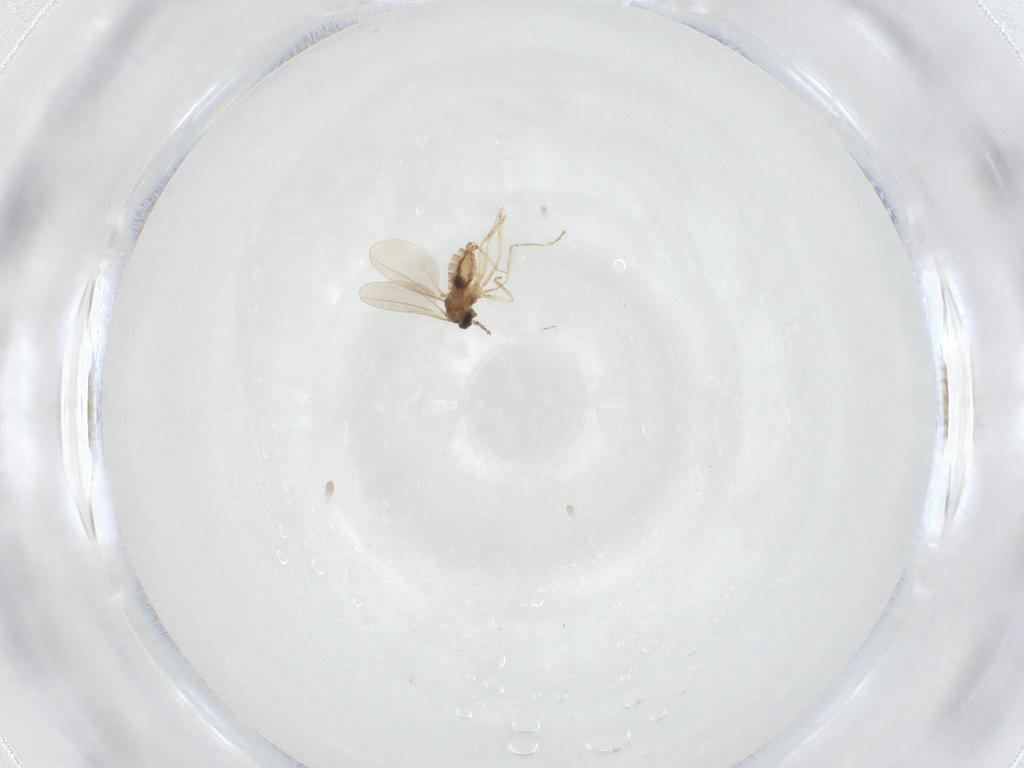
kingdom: Animalia
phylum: Arthropoda
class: Insecta
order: Diptera
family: Cecidomyiidae
